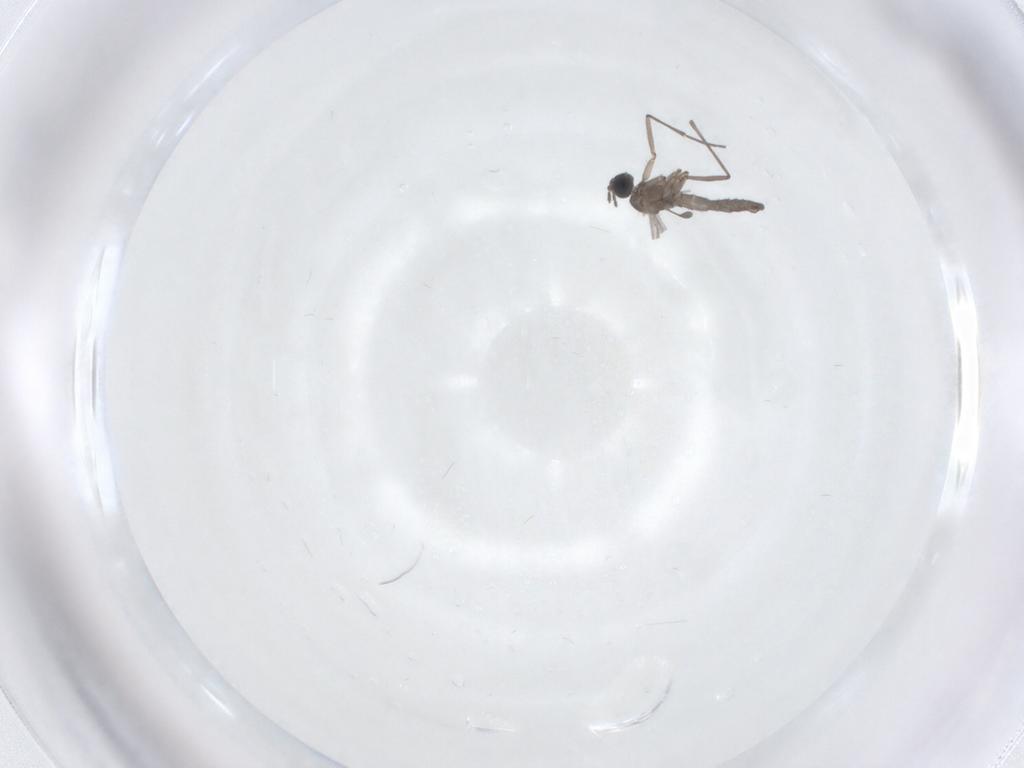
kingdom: Animalia
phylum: Arthropoda
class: Insecta
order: Diptera
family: Sciaridae
